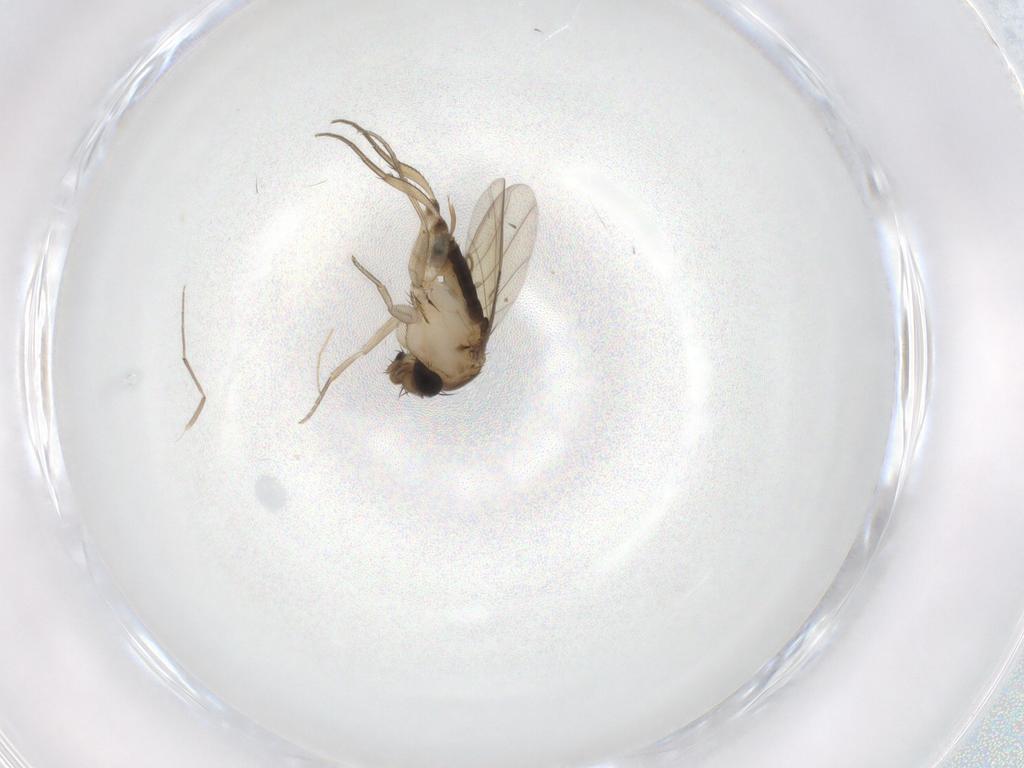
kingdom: Animalia
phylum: Arthropoda
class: Insecta
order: Diptera
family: Phoridae
